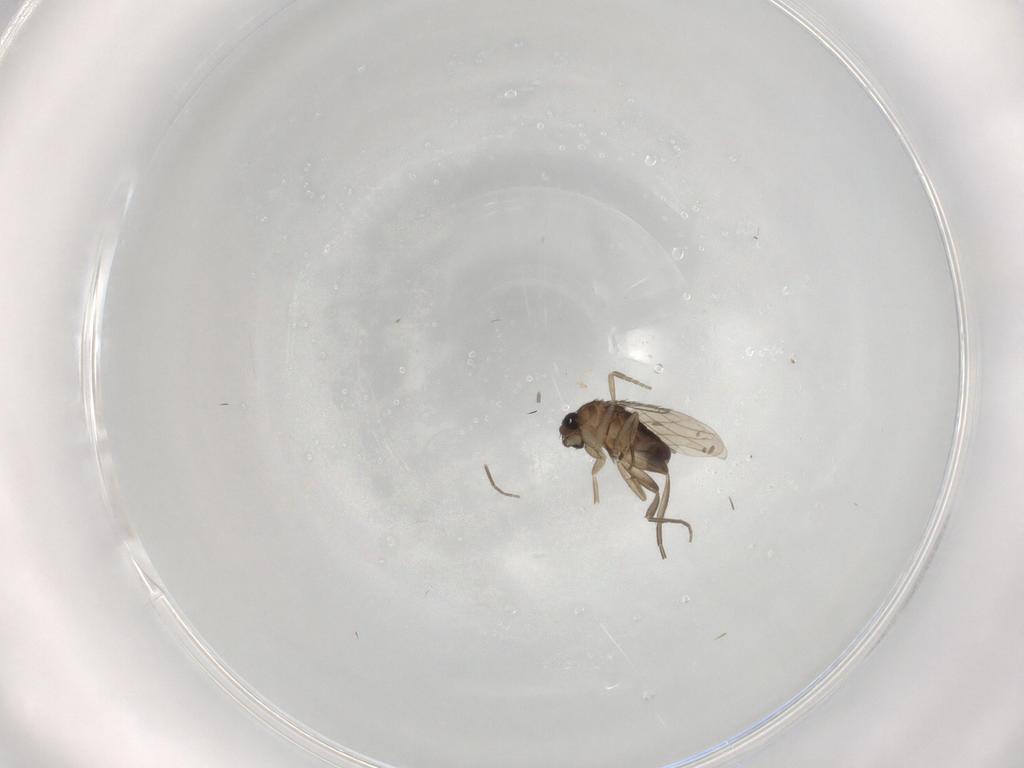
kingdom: Animalia
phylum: Arthropoda
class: Insecta
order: Diptera
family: Phoridae
